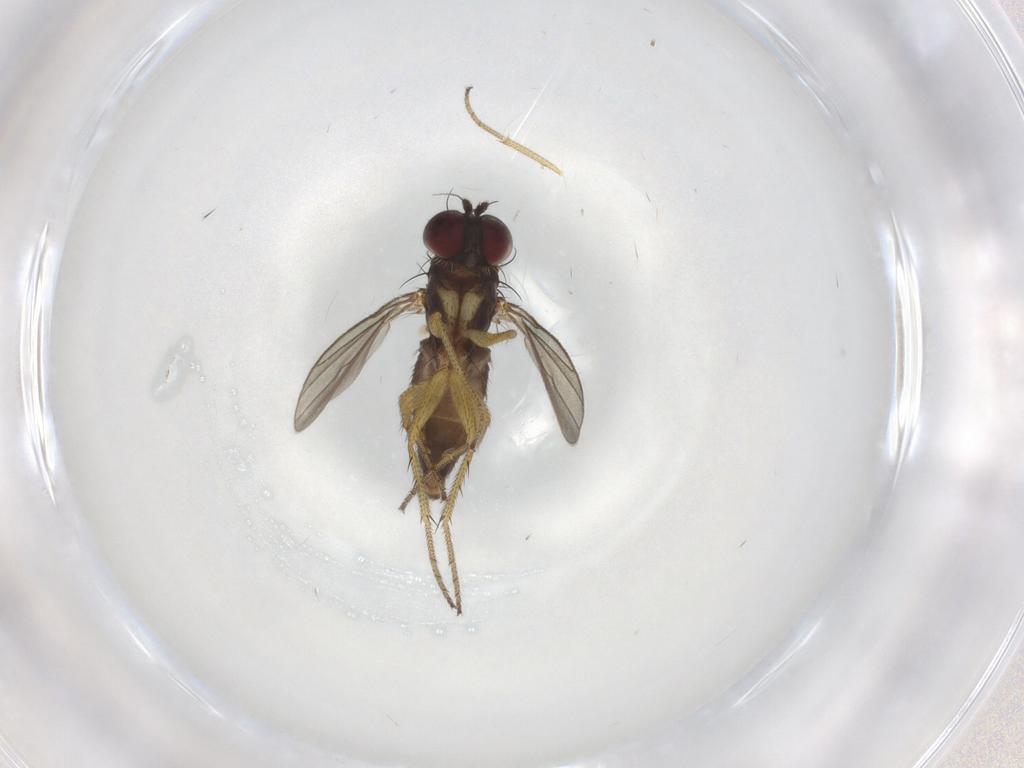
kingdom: Animalia
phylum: Arthropoda
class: Insecta
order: Diptera
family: Dolichopodidae
